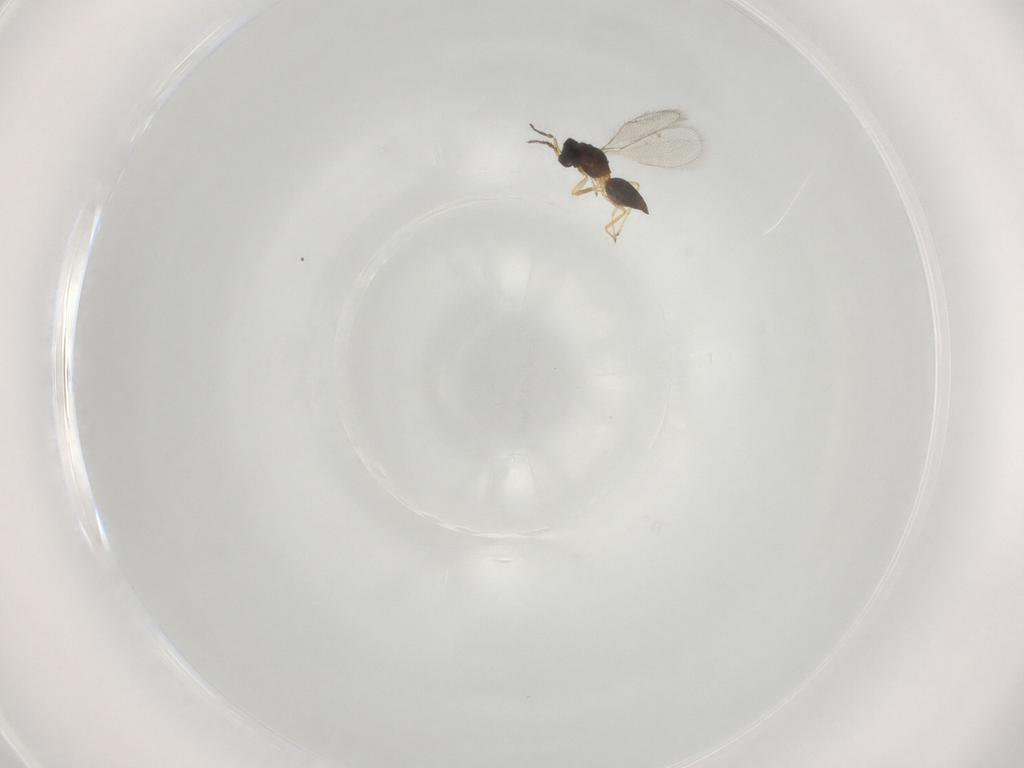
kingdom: Animalia
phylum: Arthropoda
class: Insecta
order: Hymenoptera
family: Eulophidae
